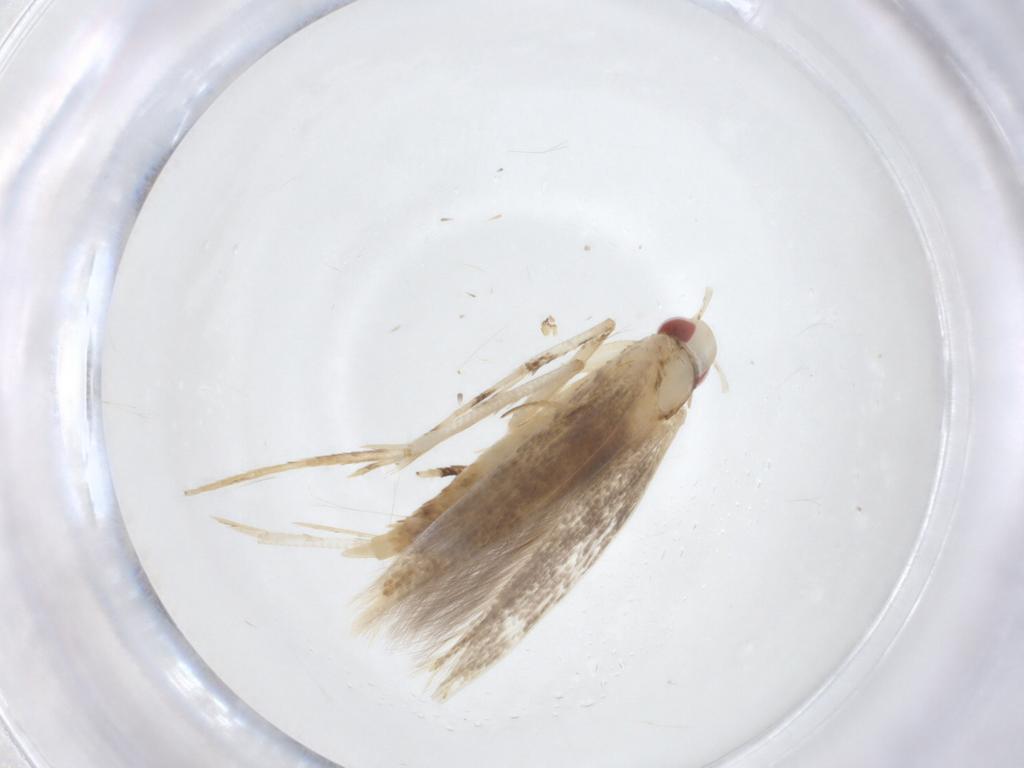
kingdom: Animalia
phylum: Arthropoda
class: Insecta
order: Lepidoptera
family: Cosmopterigidae
